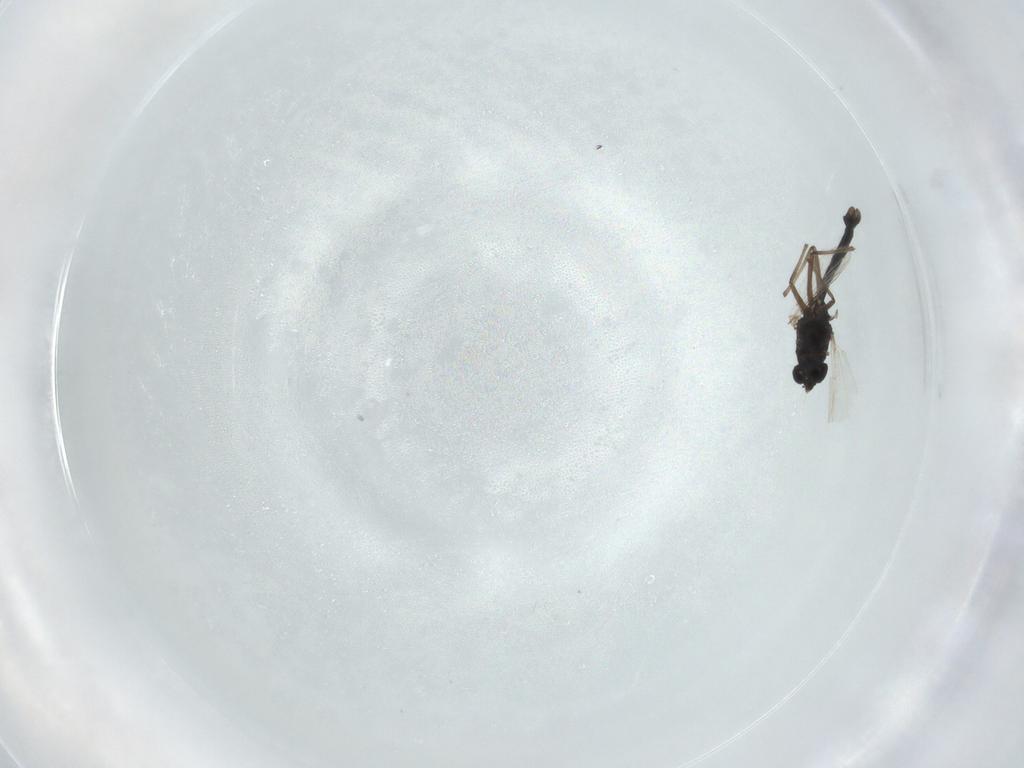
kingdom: Animalia
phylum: Arthropoda
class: Insecta
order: Diptera
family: Chironomidae
